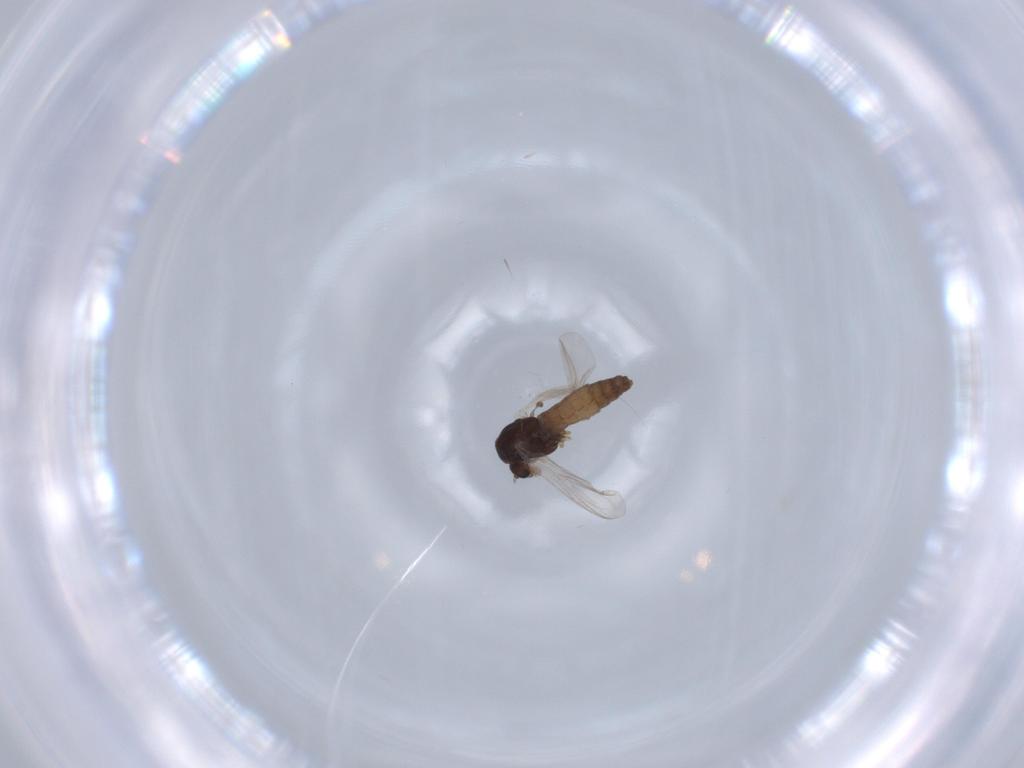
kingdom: Animalia
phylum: Arthropoda
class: Insecta
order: Diptera
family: Chironomidae
